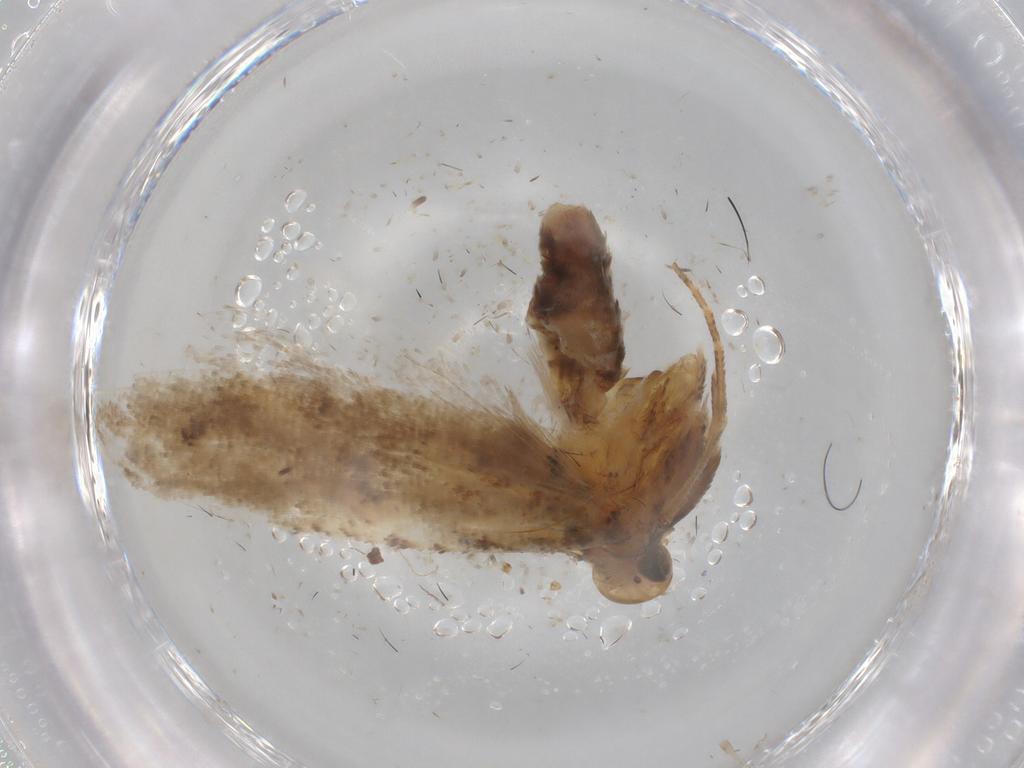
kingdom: Animalia
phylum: Arthropoda
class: Insecta
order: Lepidoptera
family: Gelechiidae
